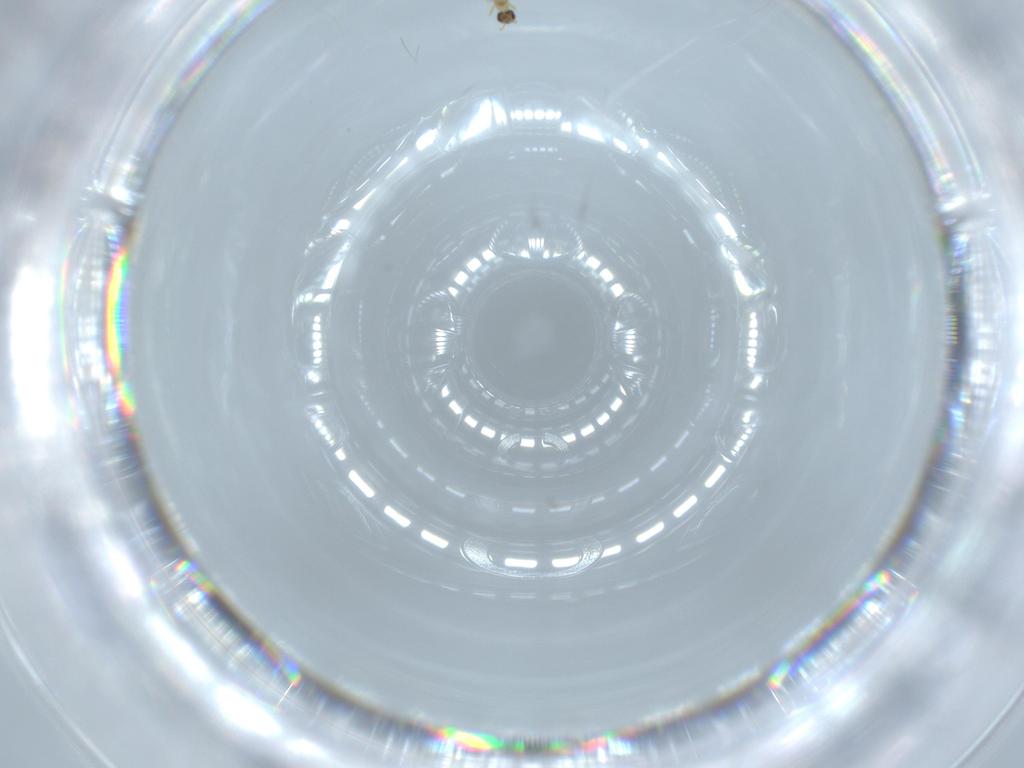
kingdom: Animalia
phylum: Arthropoda
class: Insecta
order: Hymenoptera
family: Mymaridae
